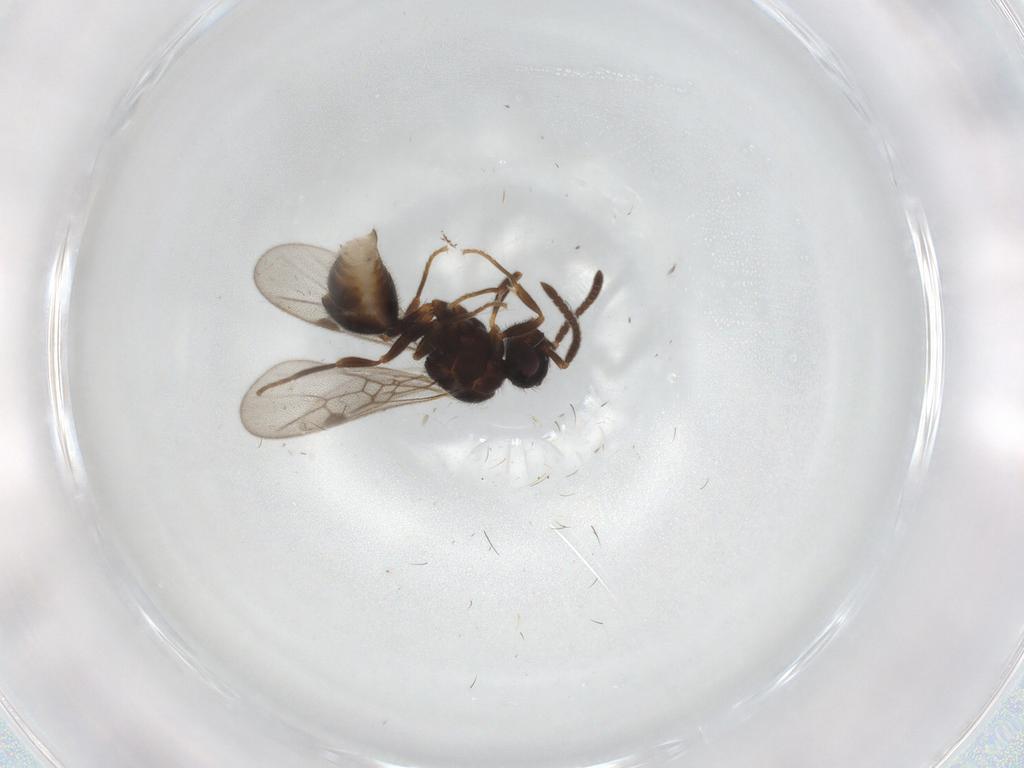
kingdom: Animalia
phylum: Arthropoda
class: Insecta
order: Hymenoptera
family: Formicidae
